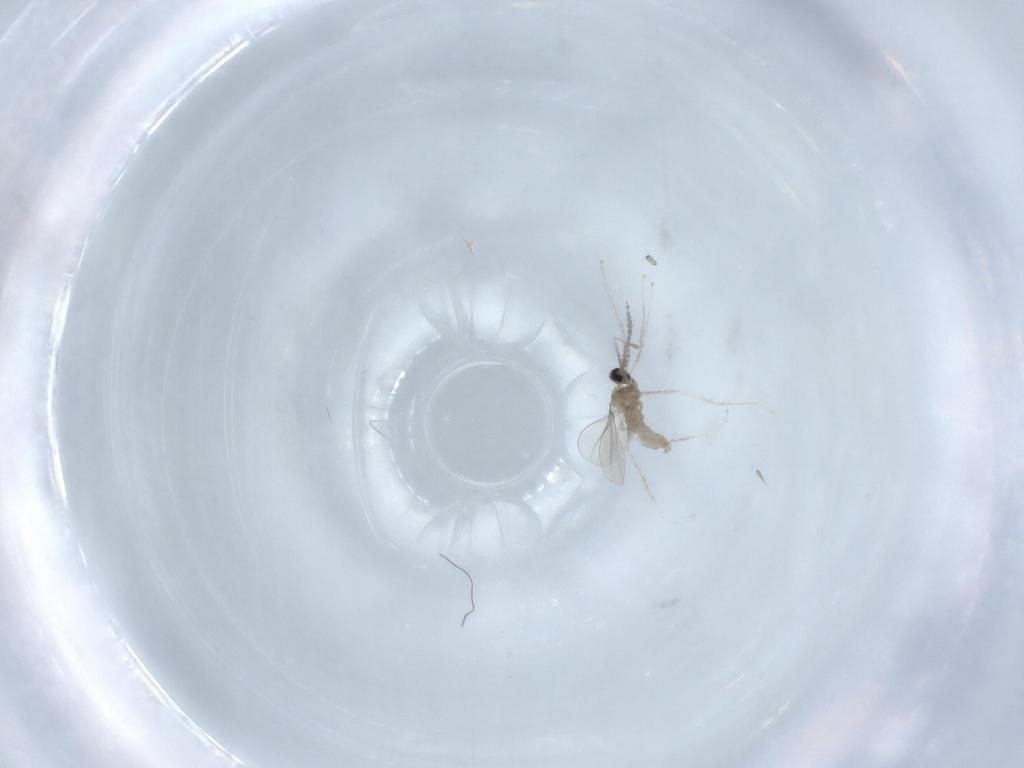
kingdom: Animalia
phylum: Arthropoda
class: Insecta
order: Diptera
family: Cecidomyiidae
